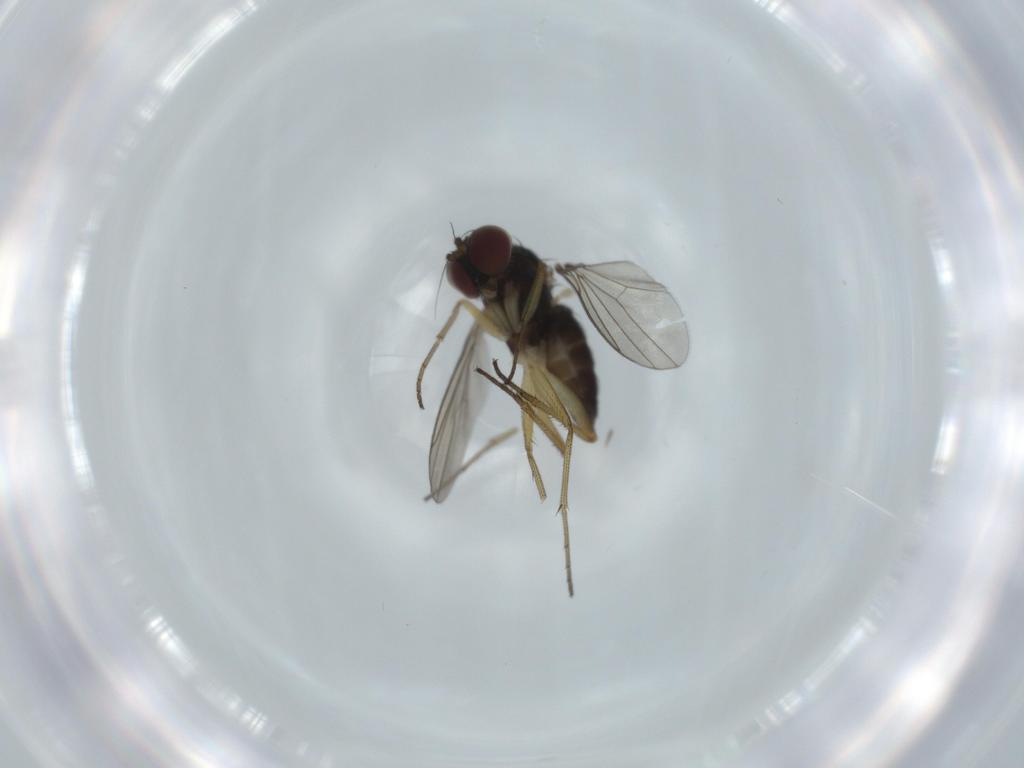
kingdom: Animalia
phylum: Arthropoda
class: Insecta
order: Diptera
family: Dolichopodidae
